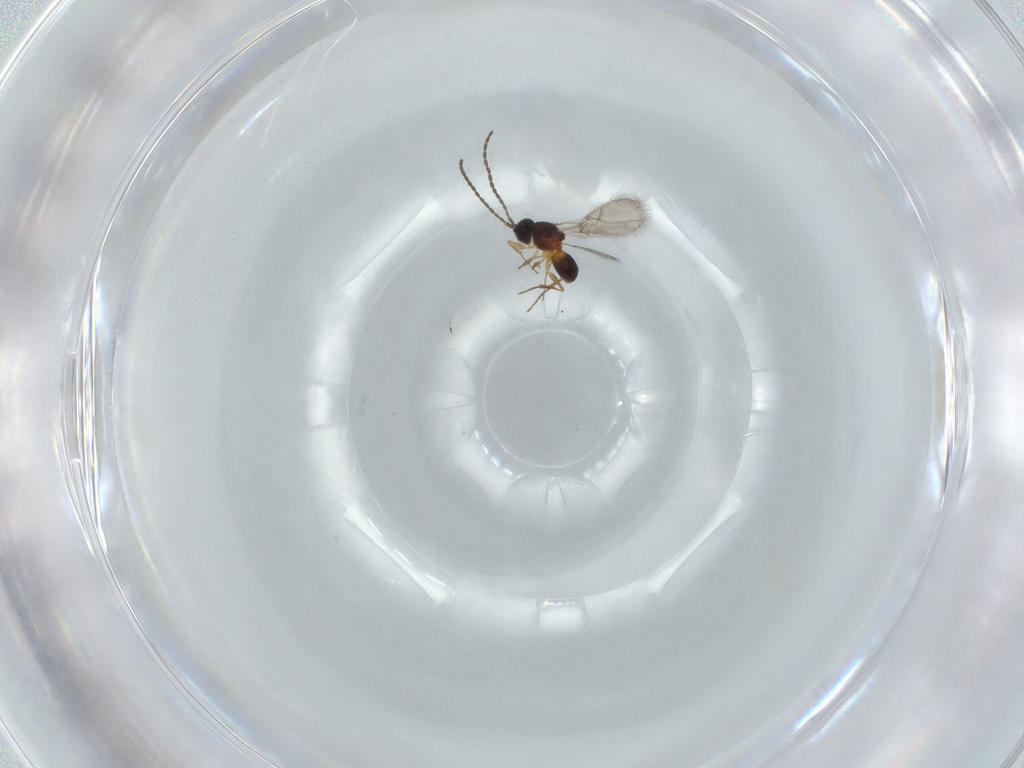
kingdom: Animalia
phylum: Arthropoda
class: Insecta
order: Hymenoptera
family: Figitidae
